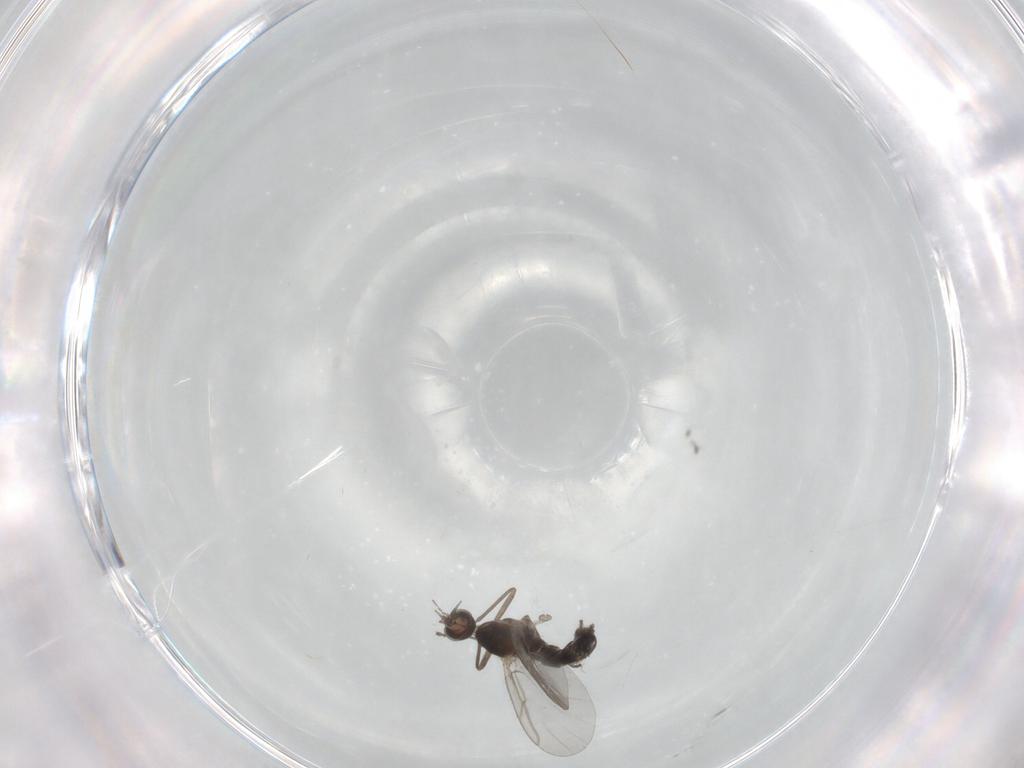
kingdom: Animalia
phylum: Arthropoda
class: Insecta
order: Diptera
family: Cecidomyiidae
